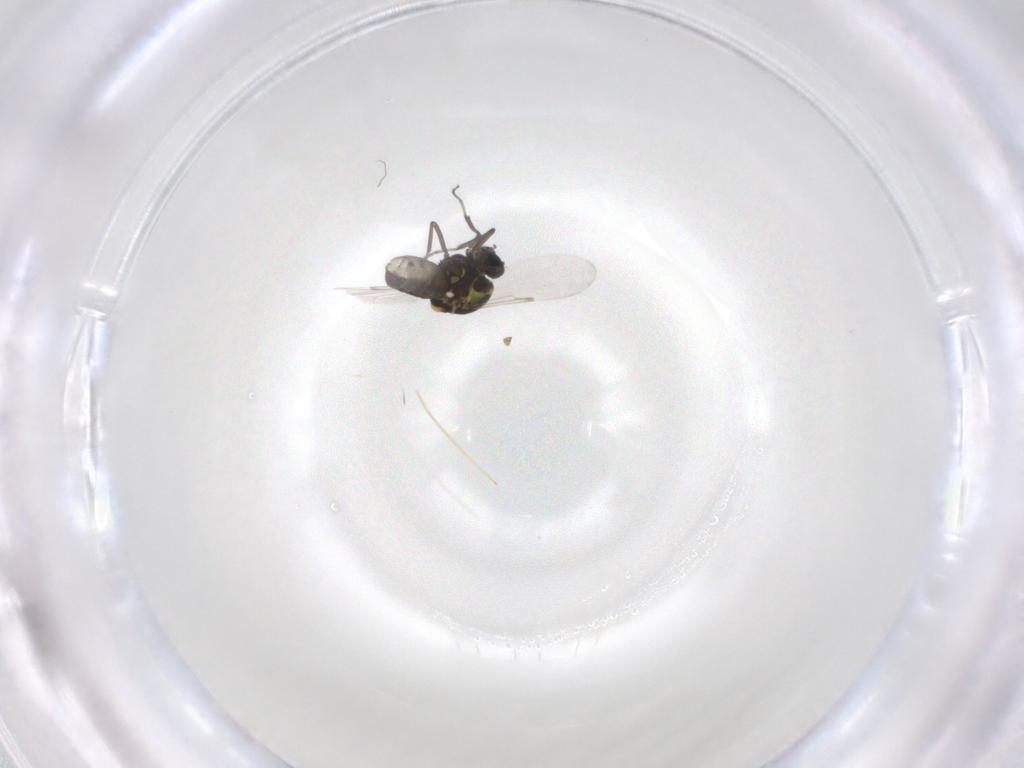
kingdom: Animalia
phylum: Arthropoda
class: Insecta
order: Diptera
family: Ceratopogonidae
